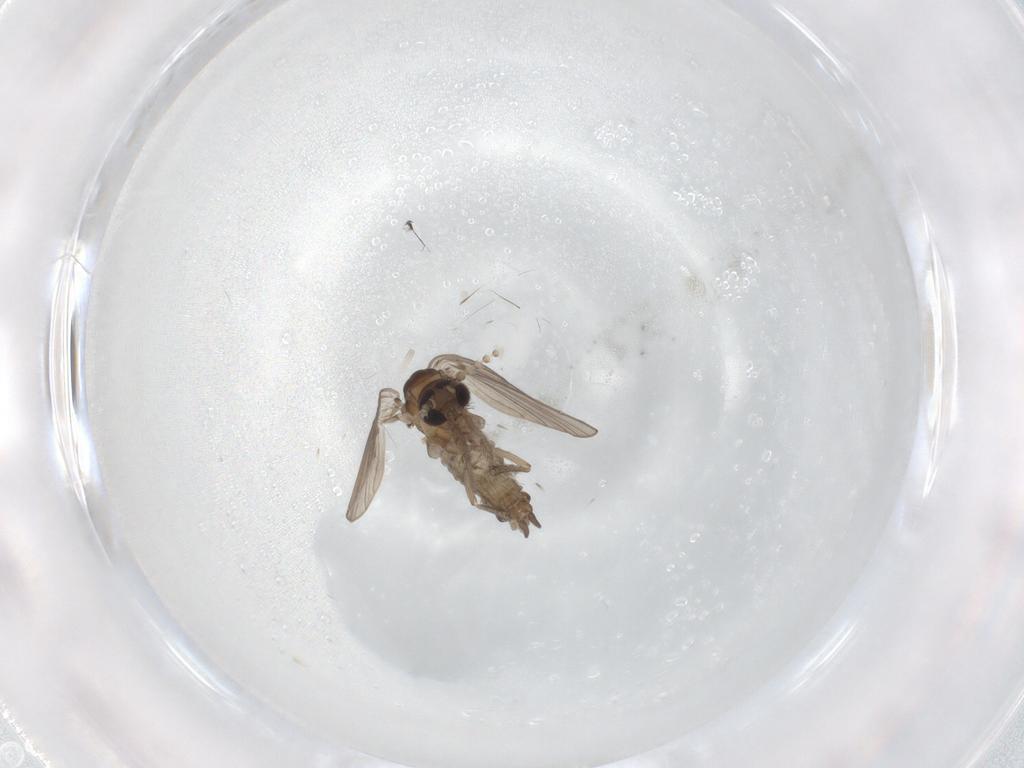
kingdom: Animalia
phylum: Arthropoda
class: Insecta
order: Diptera
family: Psychodidae
